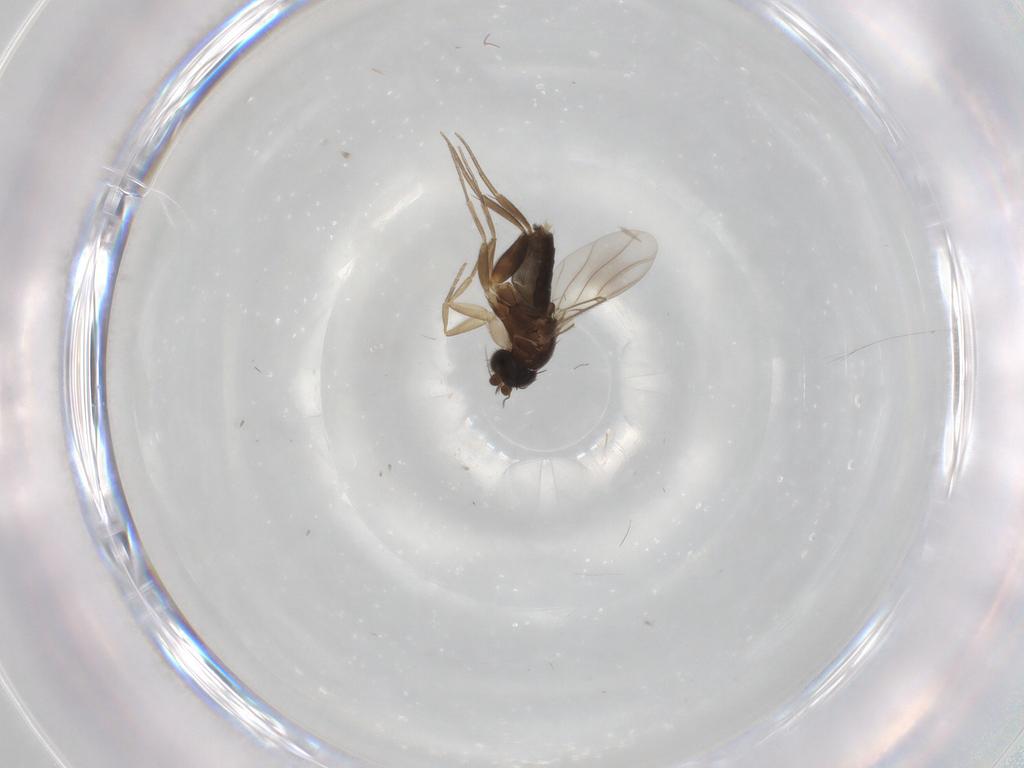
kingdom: Animalia
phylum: Arthropoda
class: Insecta
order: Diptera
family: Phoridae
